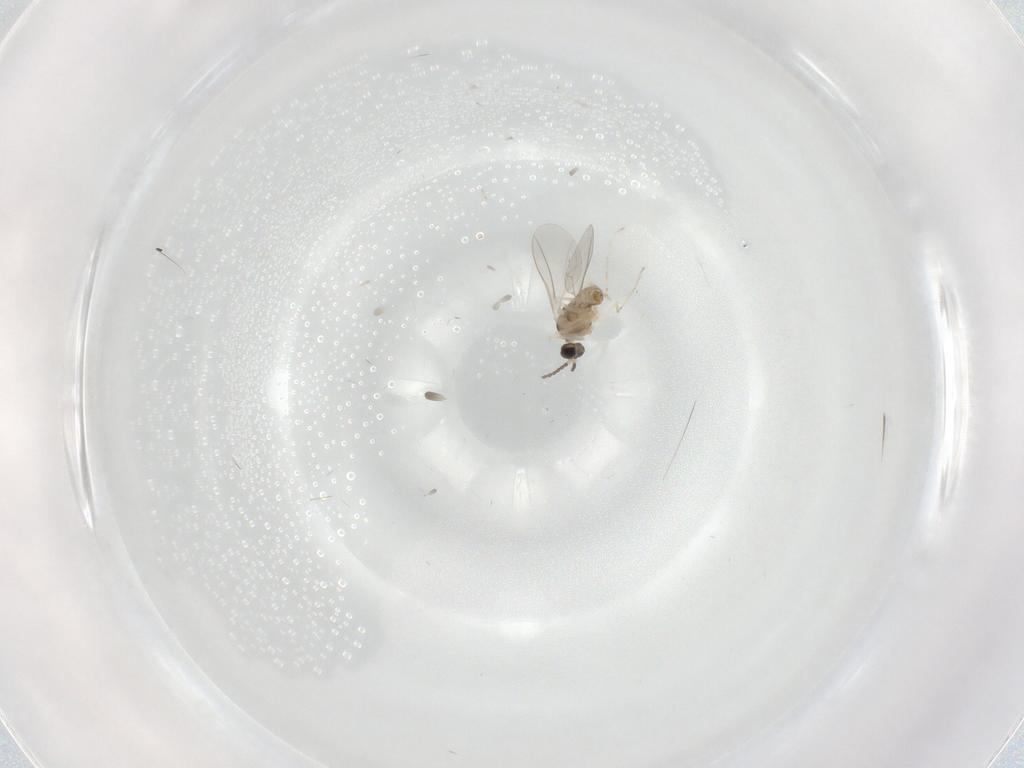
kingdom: Animalia
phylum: Arthropoda
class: Insecta
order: Diptera
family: Cecidomyiidae
